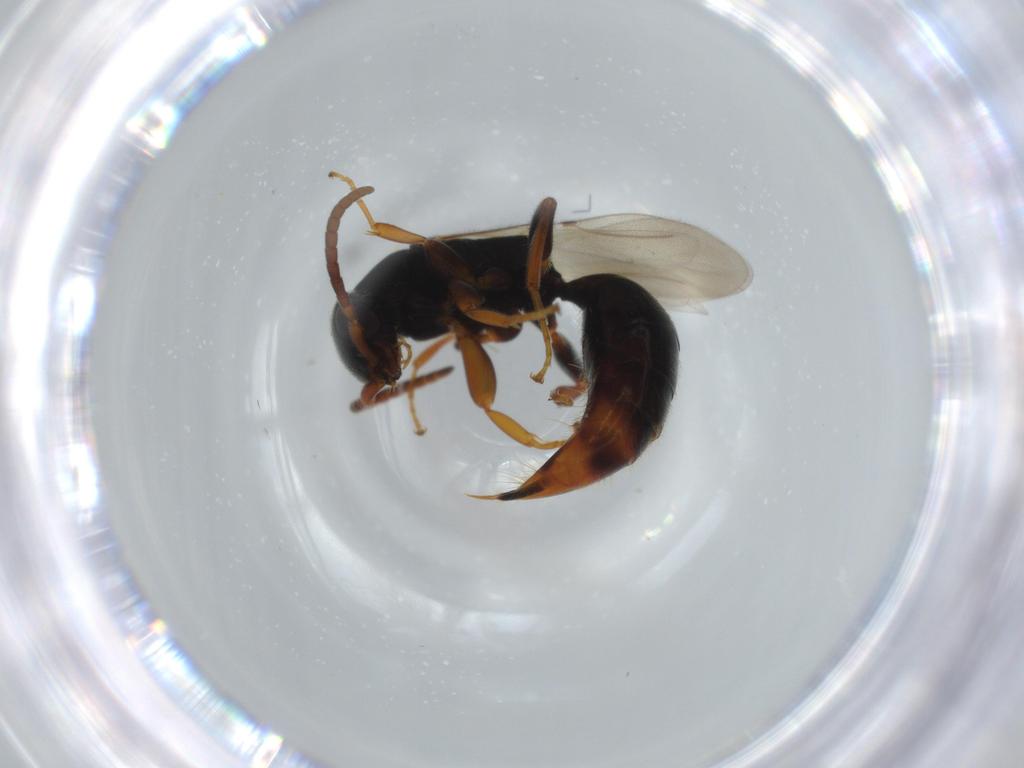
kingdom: Animalia
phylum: Arthropoda
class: Insecta
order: Hymenoptera
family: Bethylidae
